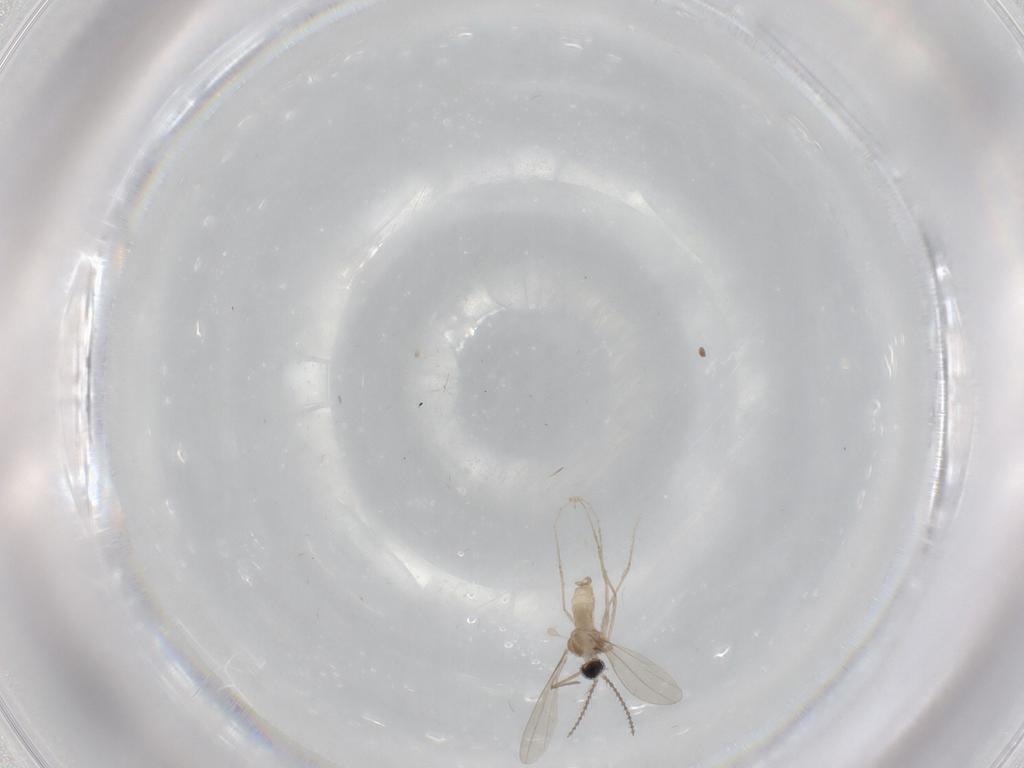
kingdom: Animalia
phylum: Arthropoda
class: Insecta
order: Diptera
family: Cecidomyiidae
